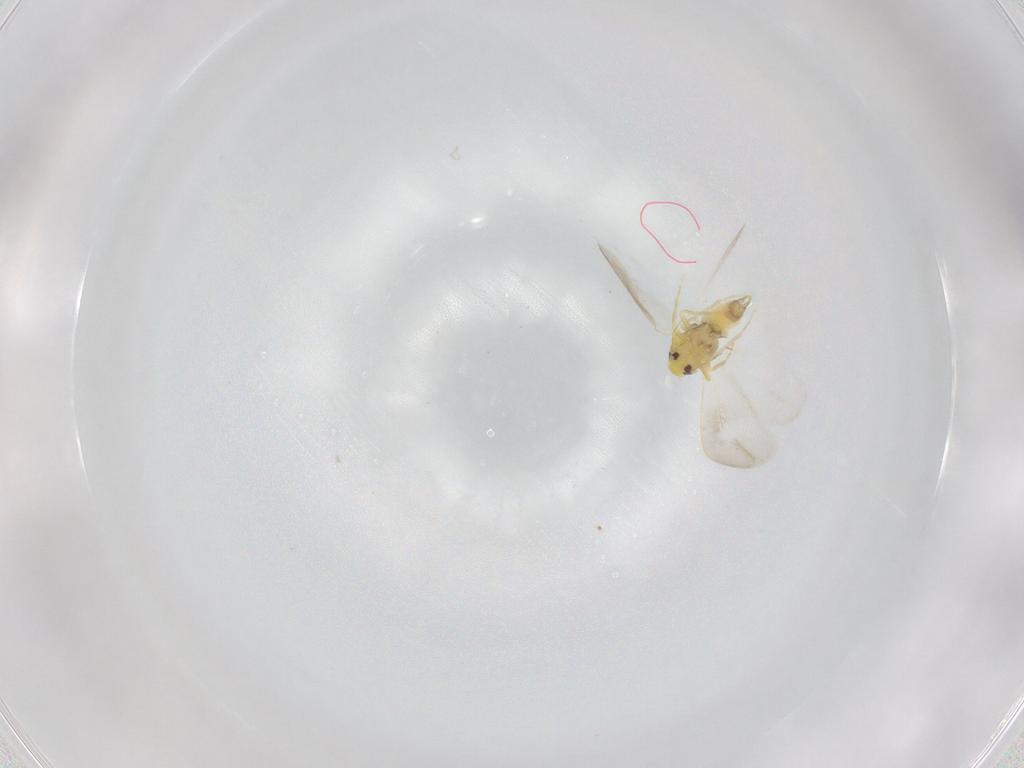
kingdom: Animalia
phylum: Arthropoda
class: Insecta
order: Hemiptera
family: Aleyrodidae
